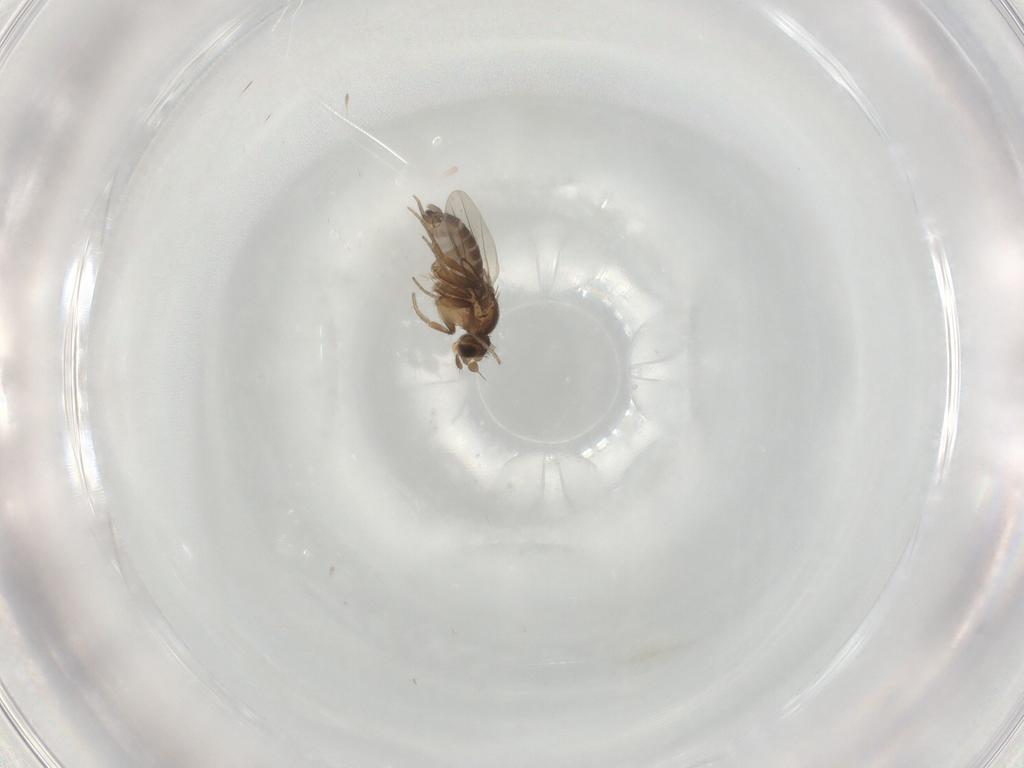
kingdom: Animalia
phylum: Arthropoda
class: Insecta
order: Diptera
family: Phoridae
